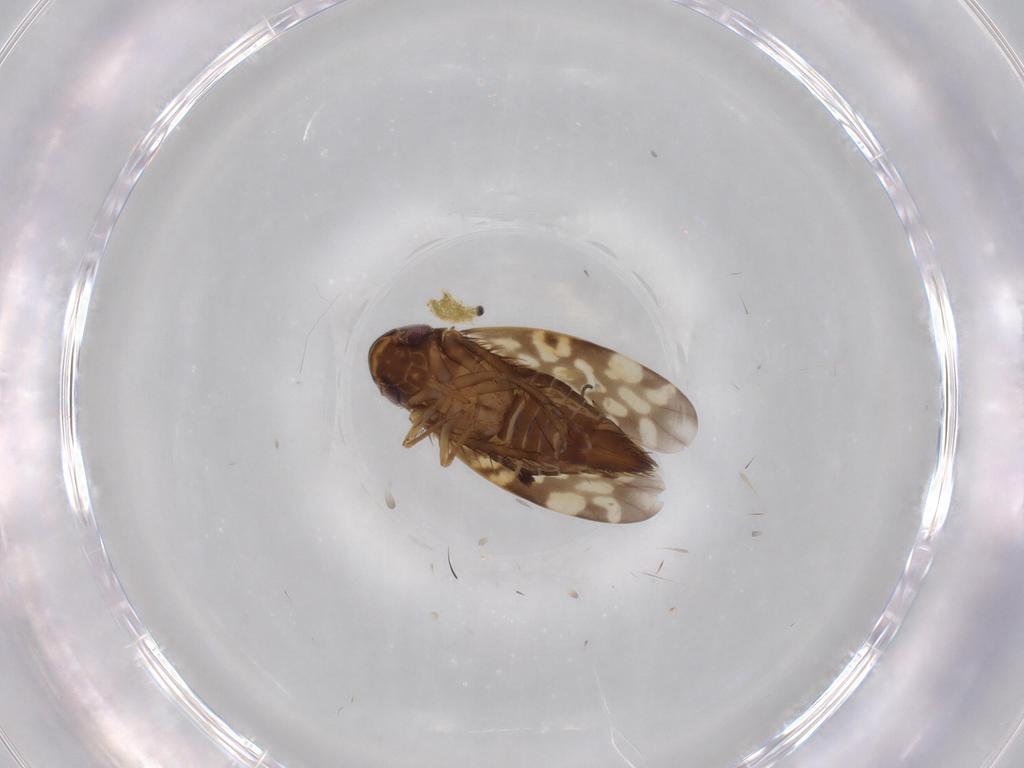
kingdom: Animalia
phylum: Arthropoda
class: Insecta
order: Hemiptera
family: Cicadellidae
